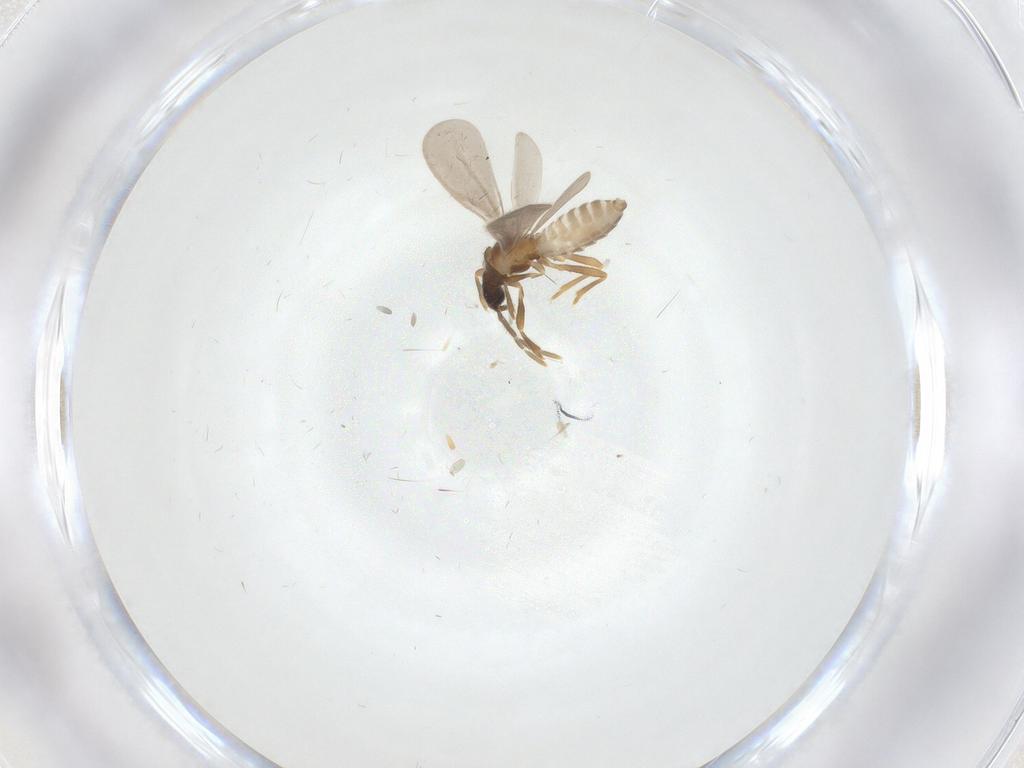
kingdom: Animalia
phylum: Arthropoda
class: Insecta
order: Hemiptera
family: Enicocephalidae
